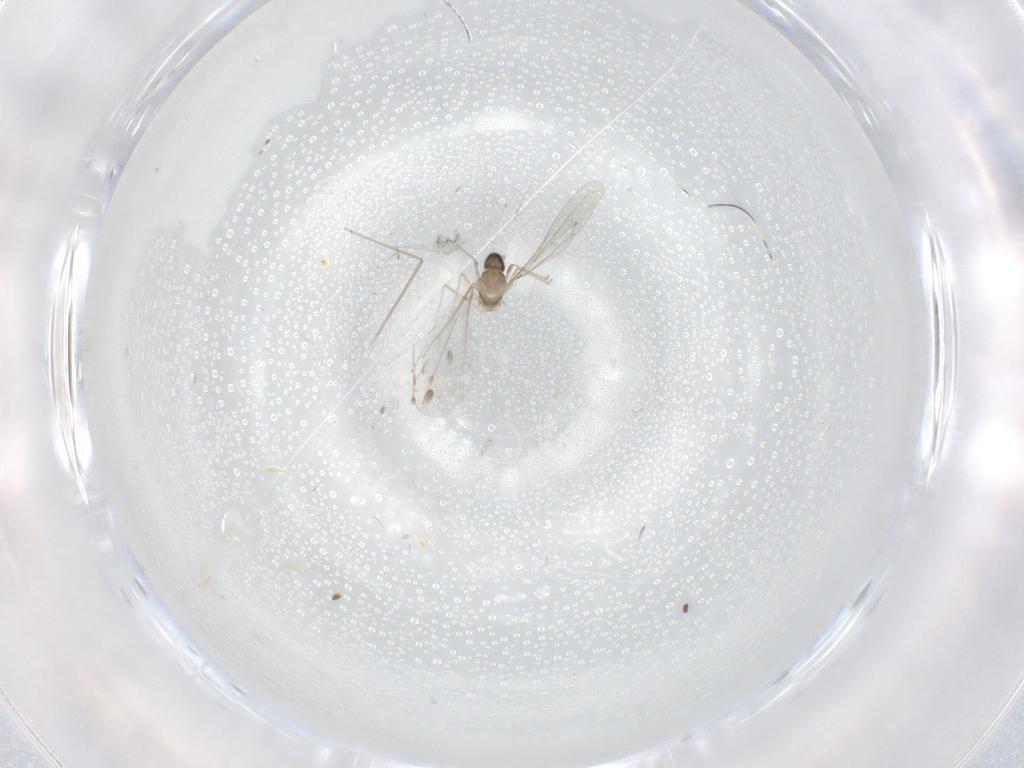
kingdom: Animalia
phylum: Arthropoda
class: Insecta
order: Diptera
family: Cecidomyiidae
